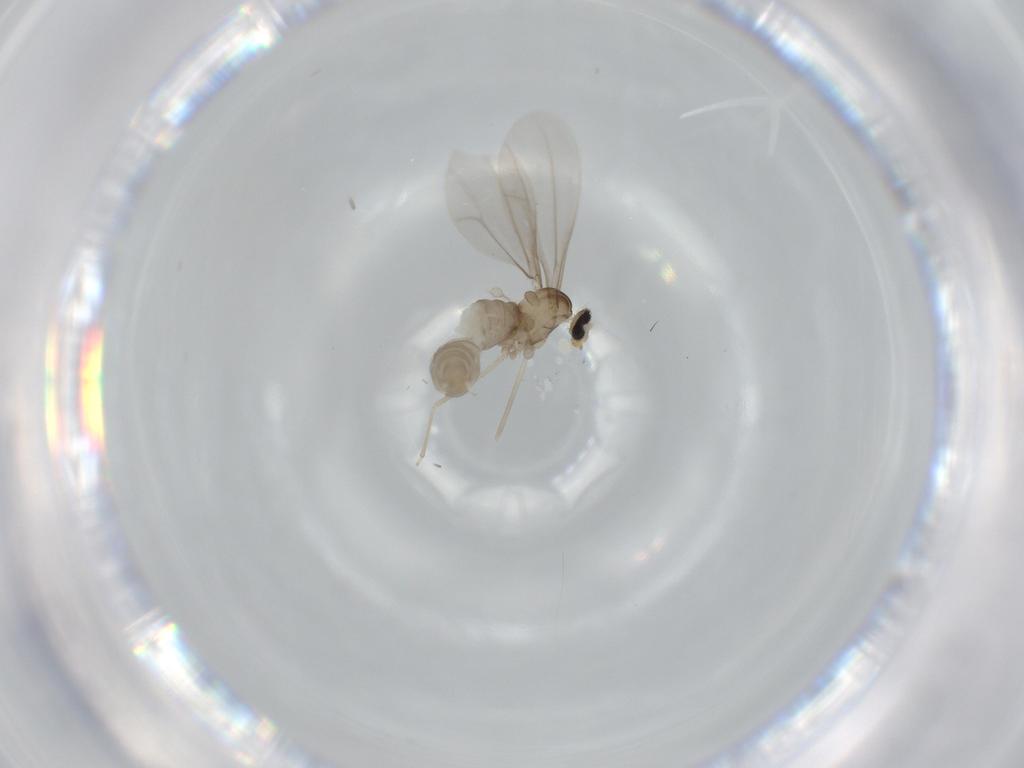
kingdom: Animalia
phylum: Arthropoda
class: Insecta
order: Diptera
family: Cecidomyiidae
